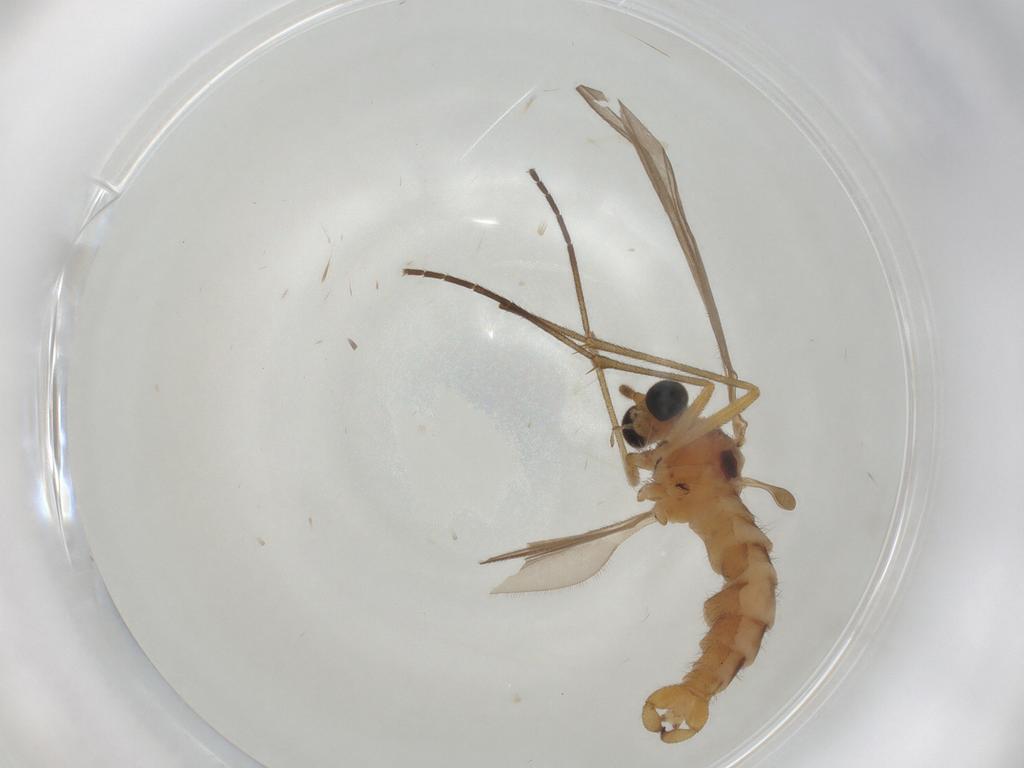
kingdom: Animalia
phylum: Arthropoda
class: Insecta
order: Diptera
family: Sciaridae
